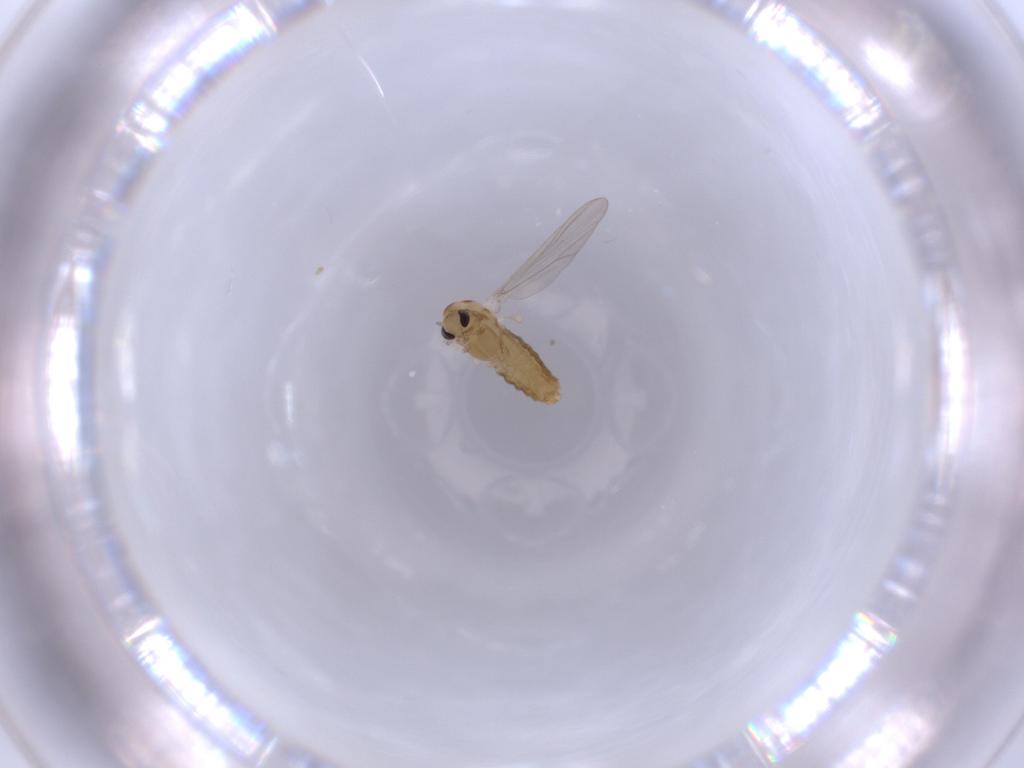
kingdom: Animalia
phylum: Arthropoda
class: Insecta
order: Diptera
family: Chironomidae
